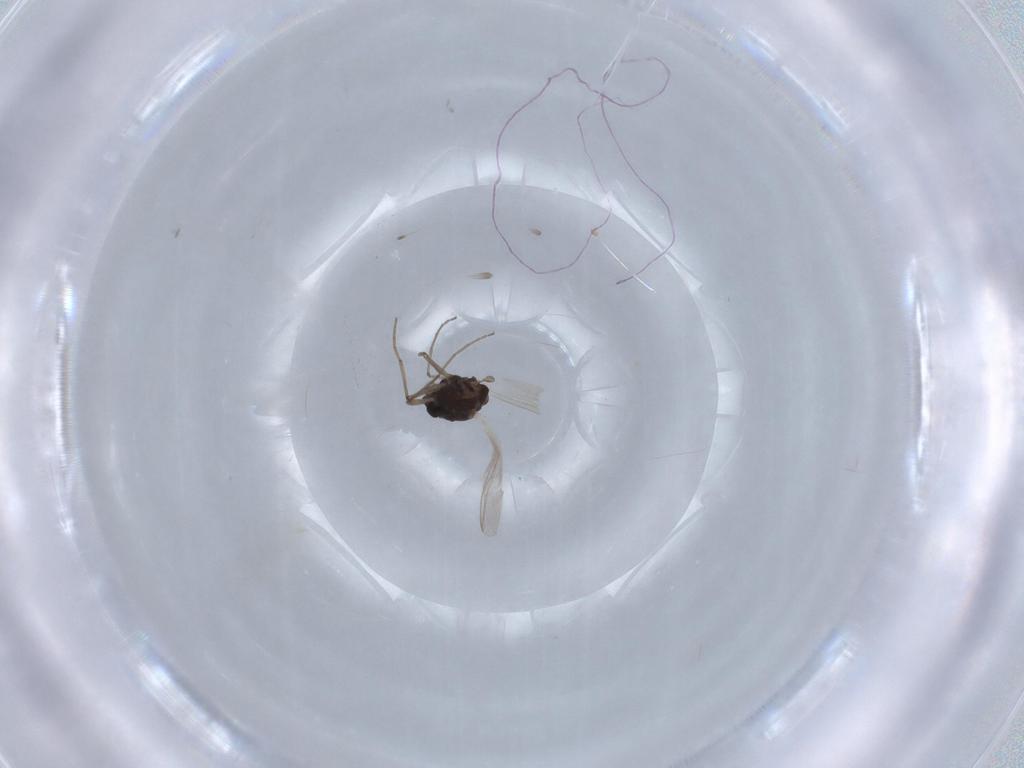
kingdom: Animalia
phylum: Arthropoda
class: Insecta
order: Diptera
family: Chironomidae
